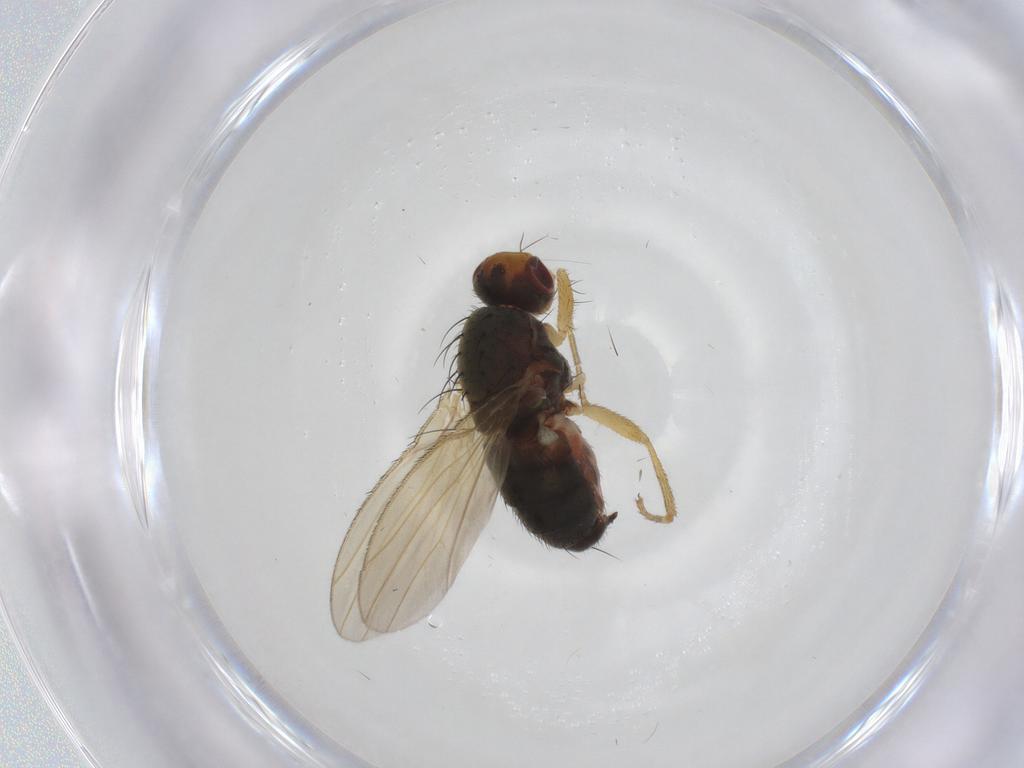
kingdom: Animalia
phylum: Arthropoda
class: Insecta
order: Diptera
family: Heleomyzidae
